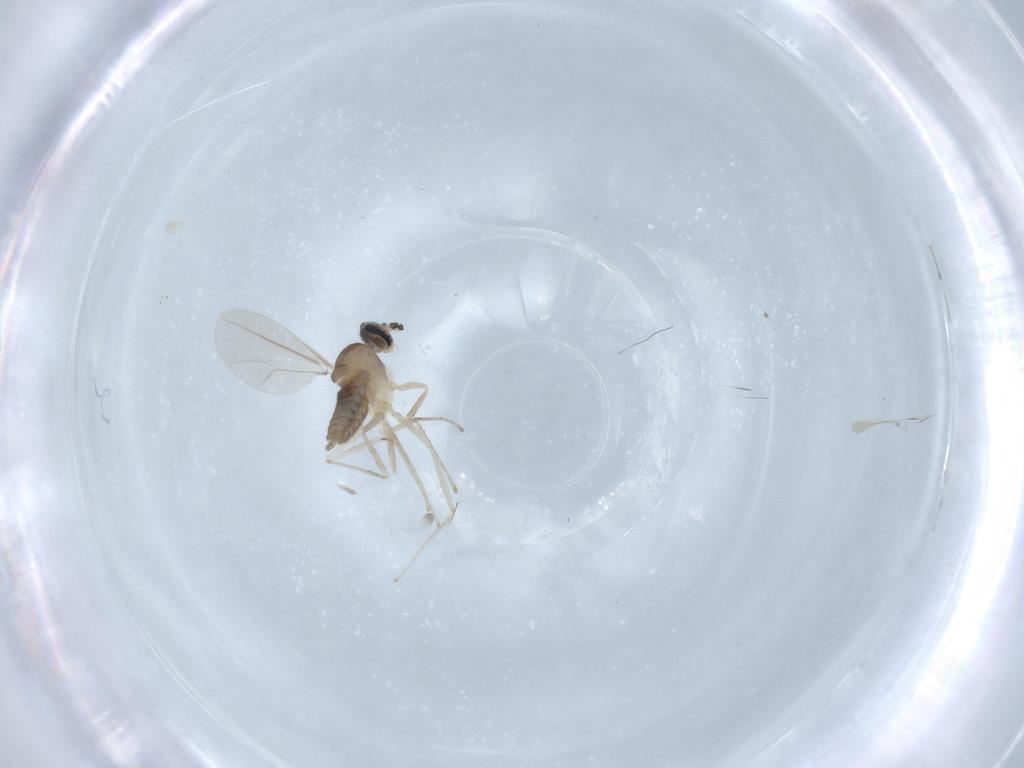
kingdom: Animalia
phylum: Arthropoda
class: Insecta
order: Diptera
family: Cecidomyiidae
